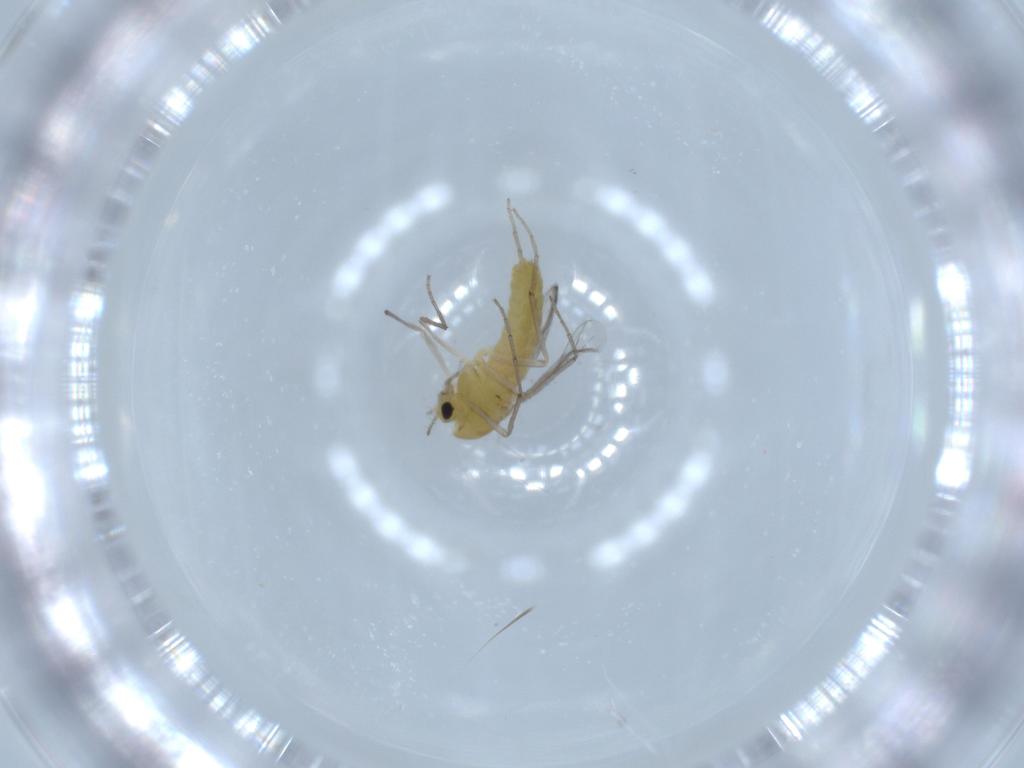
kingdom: Animalia
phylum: Arthropoda
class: Insecta
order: Diptera
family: Chironomidae
